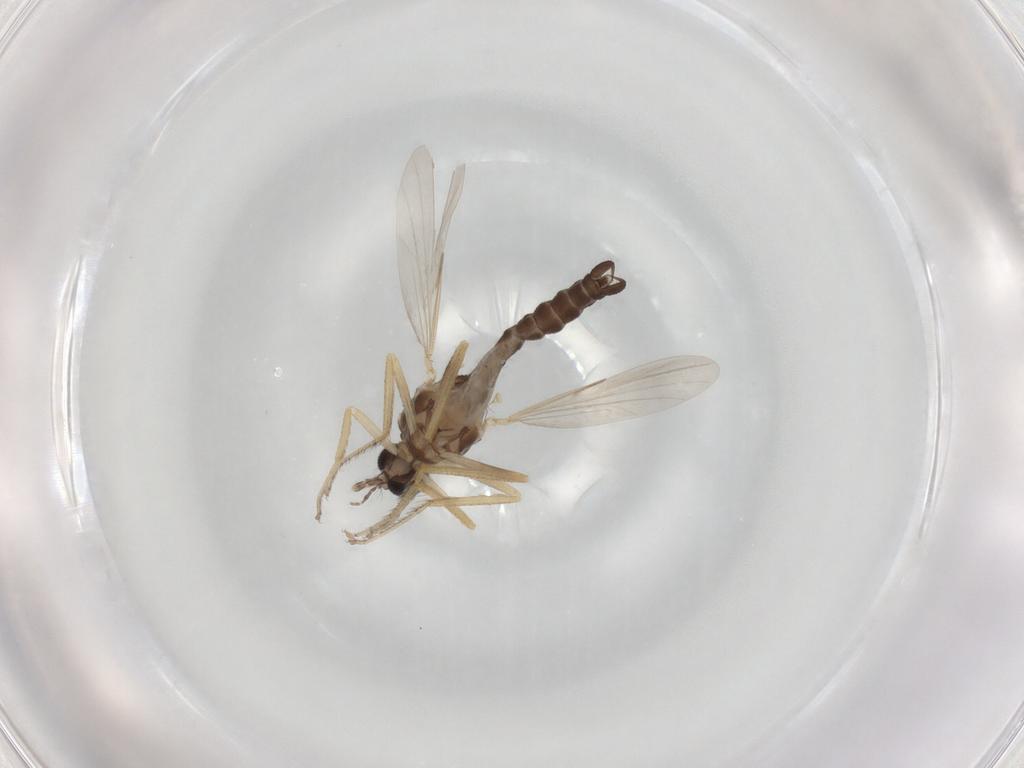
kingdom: Animalia
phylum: Arthropoda
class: Insecta
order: Diptera
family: Ceratopogonidae
